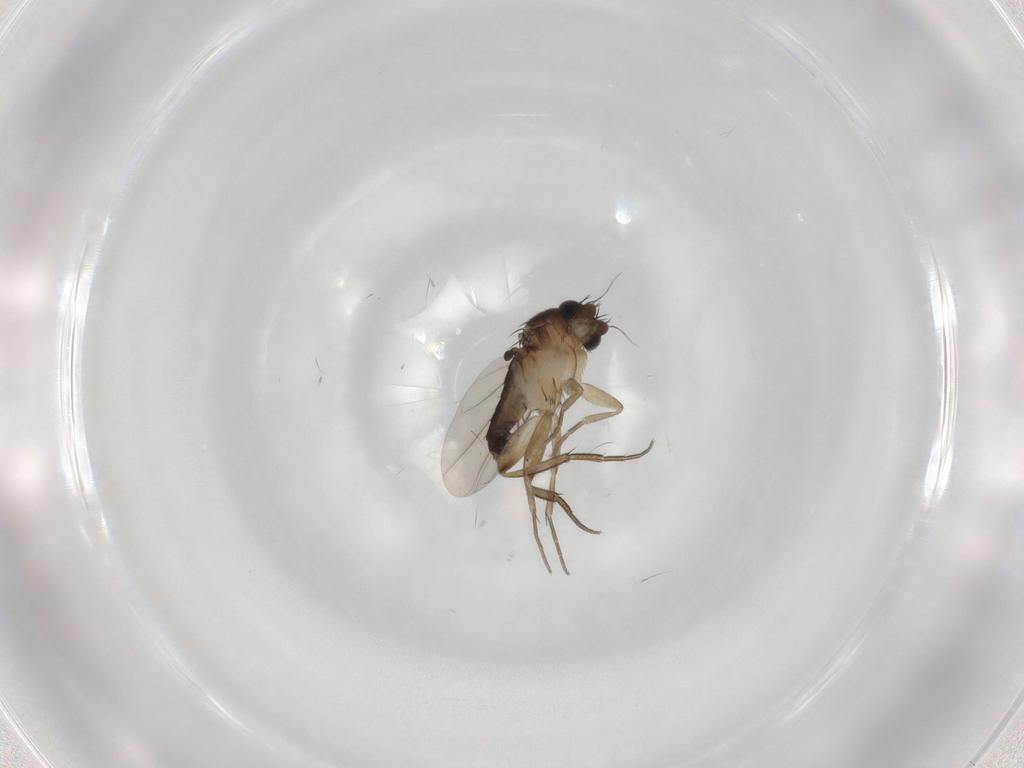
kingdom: Animalia
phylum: Arthropoda
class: Insecta
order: Diptera
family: Phoridae
